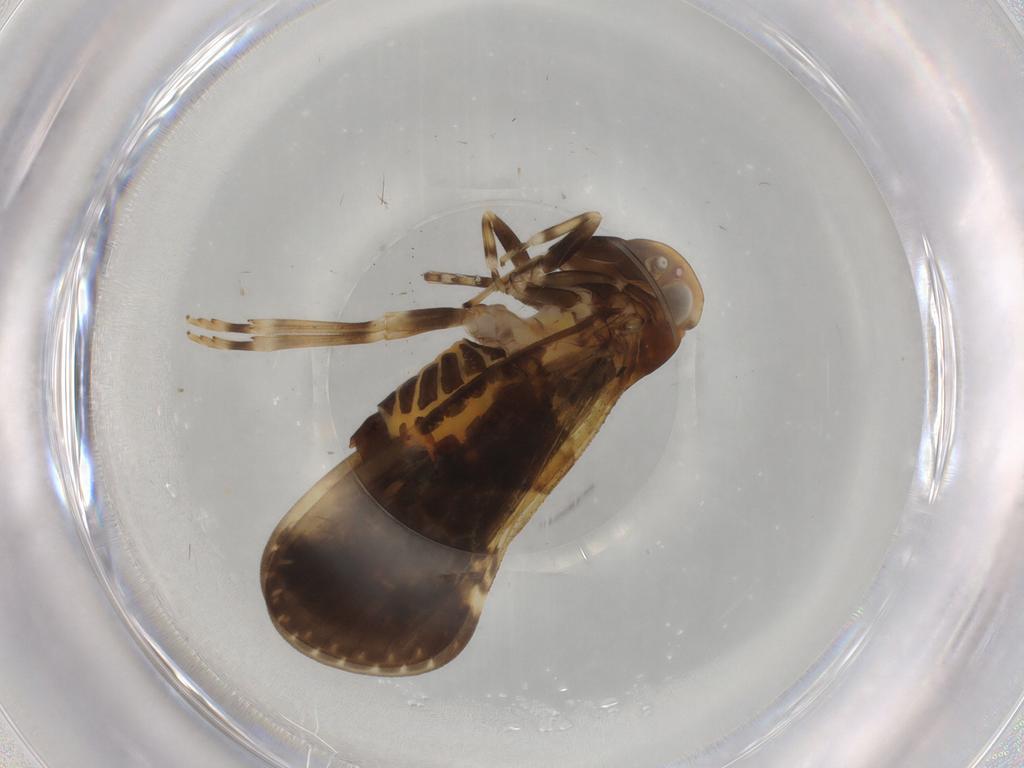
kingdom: Animalia
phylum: Arthropoda
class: Insecta
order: Hemiptera
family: Cixiidae
